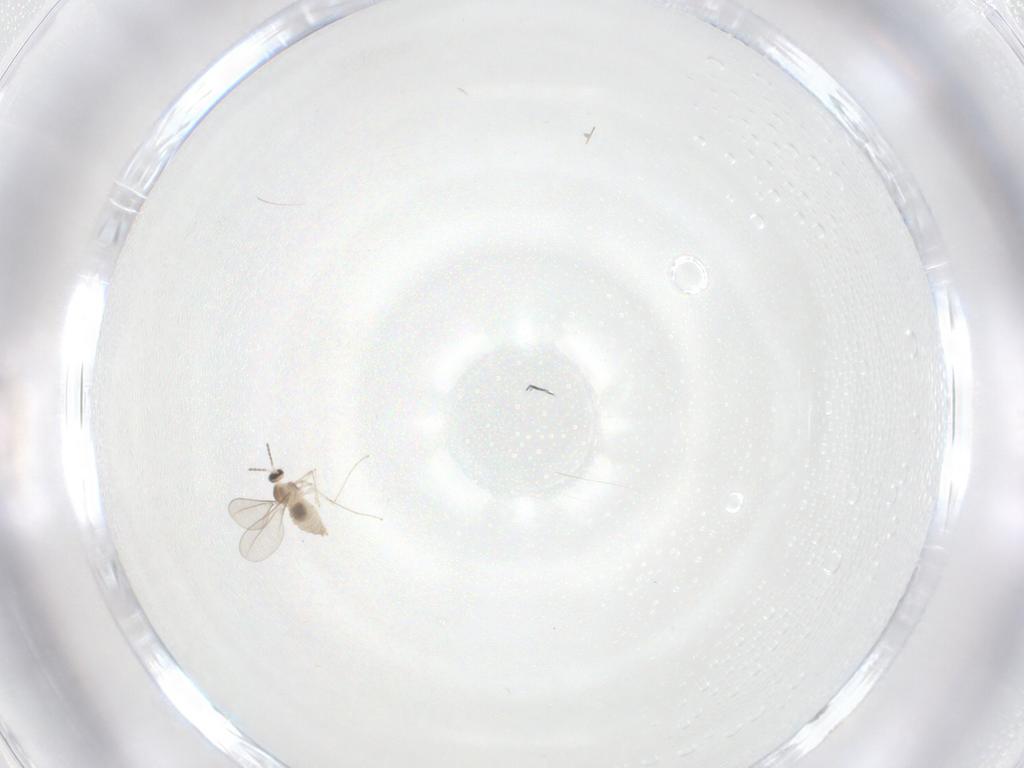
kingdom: Animalia
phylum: Arthropoda
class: Insecta
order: Diptera
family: Cecidomyiidae
